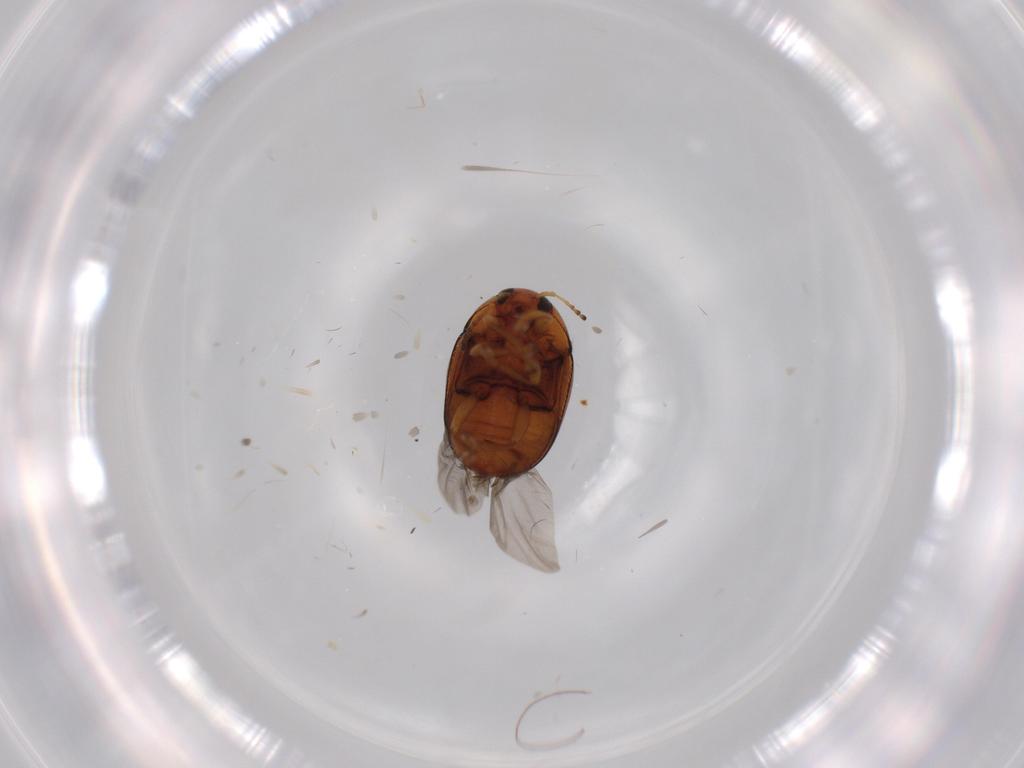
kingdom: Animalia
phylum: Arthropoda
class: Insecta
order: Coleoptera
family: Chrysomelidae
